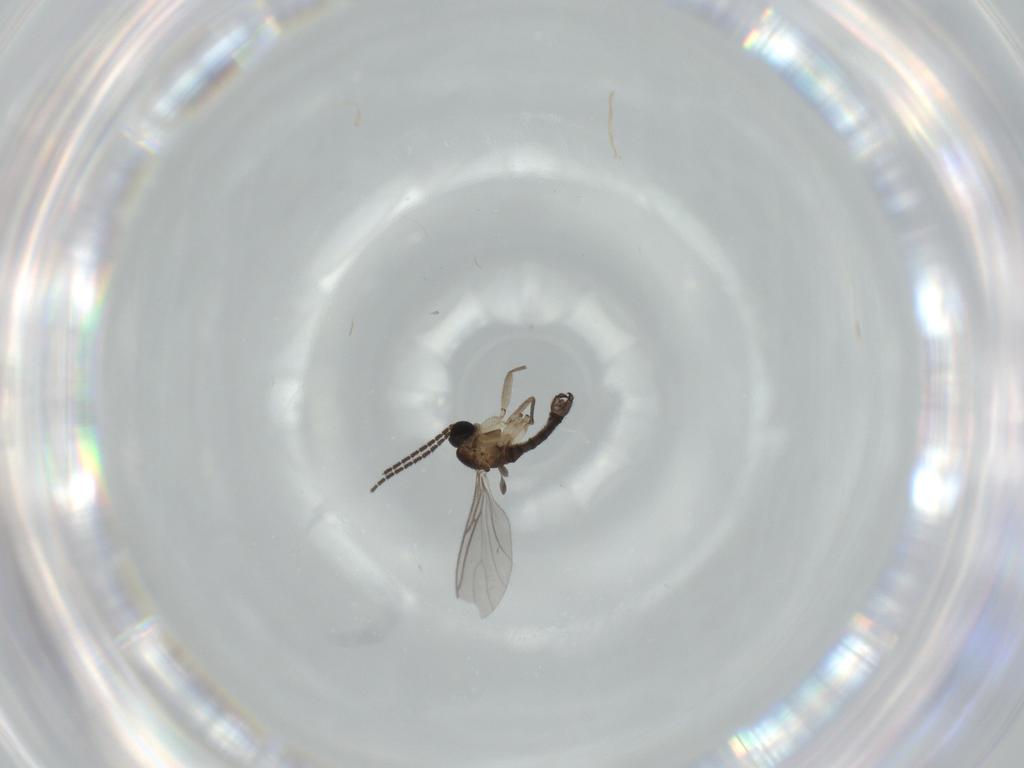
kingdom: Animalia
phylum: Arthropoda
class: Insecta
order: Diptera
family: Sciaridae
